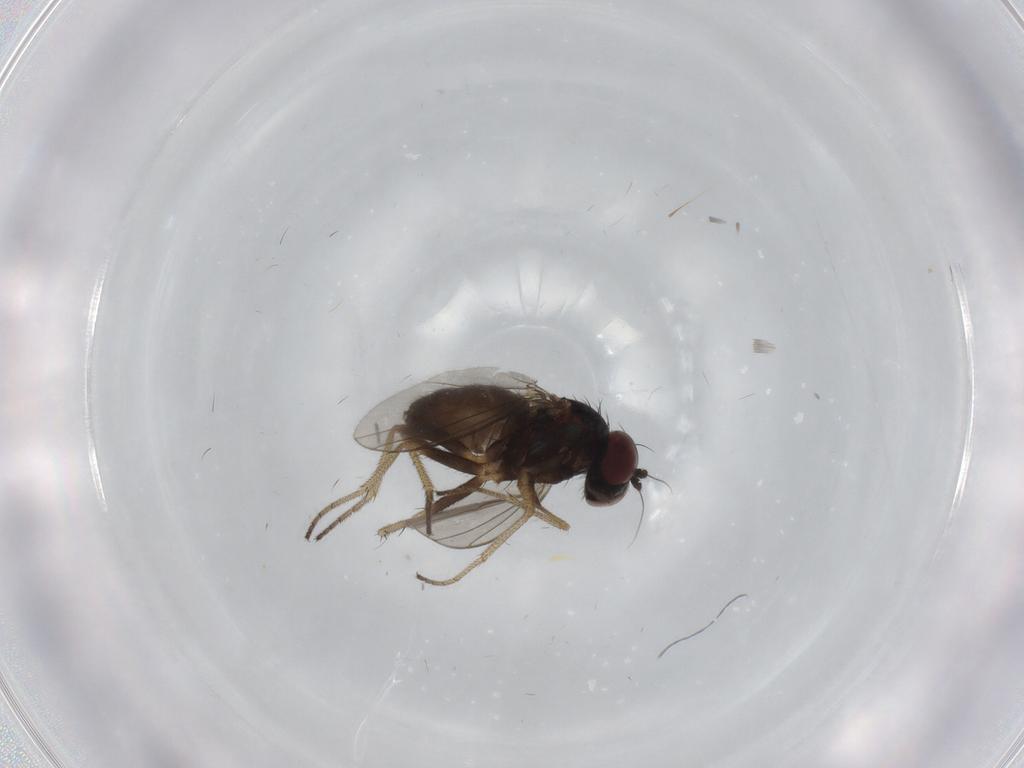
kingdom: Animalia
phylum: Arthropoda
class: Insecta
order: Diptera
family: Dolichopodidae
